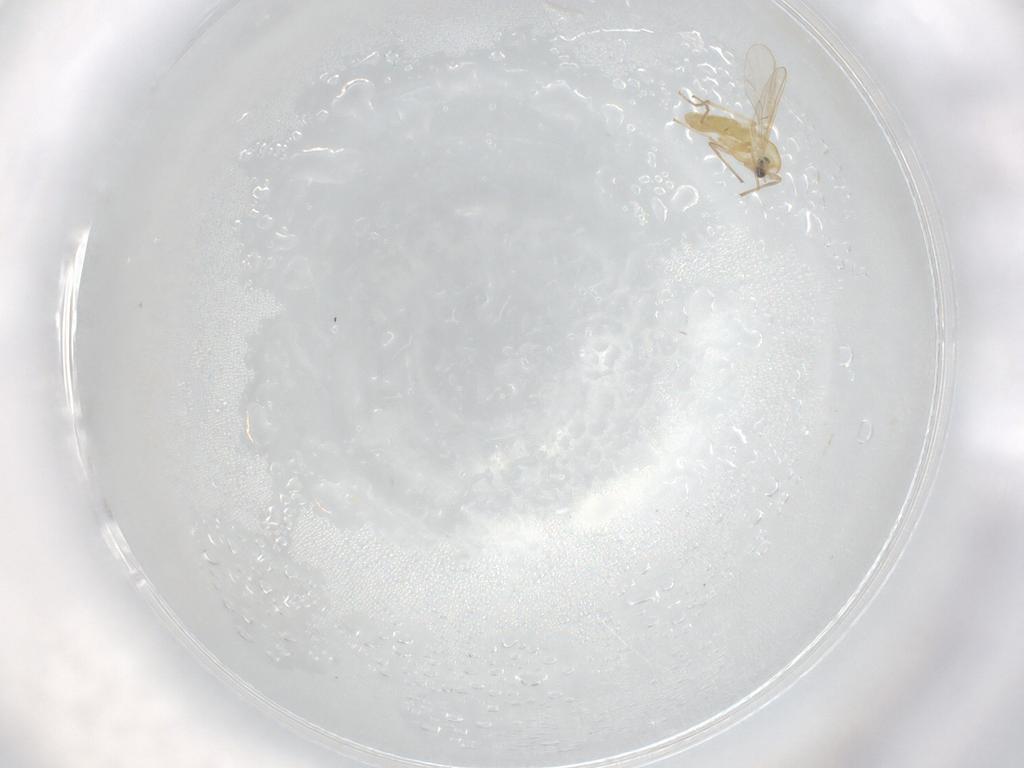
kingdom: Animalia
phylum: Arthropoda
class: Insecta
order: Diptera
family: Chironomidae
